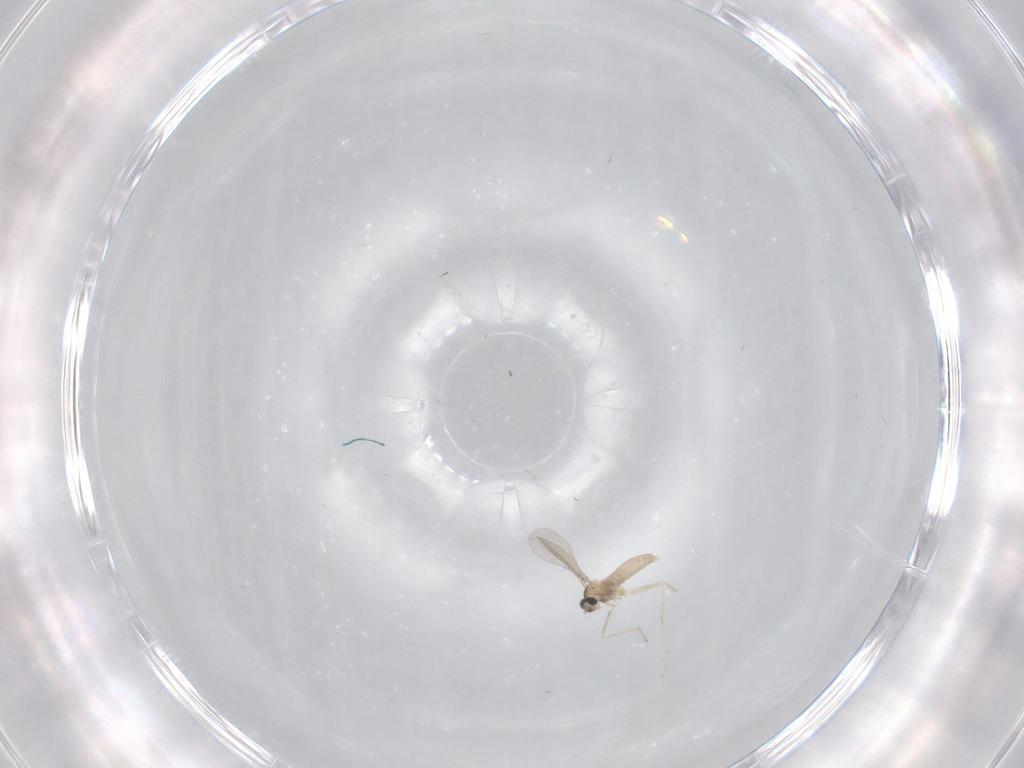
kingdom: Animalia
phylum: Arthropoda
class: Insecta
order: Diptera
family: Cecidomyiidae
